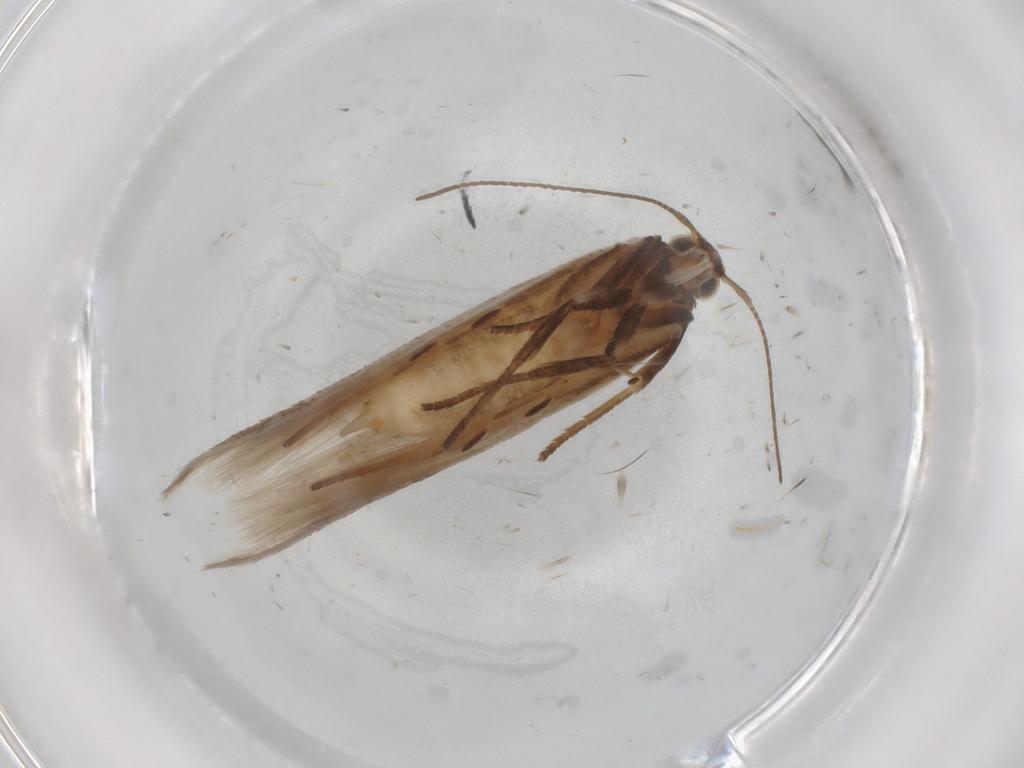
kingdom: Animalia
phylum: Arthropoda
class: Insecta
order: Lepidoptera
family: Gelechiidae
